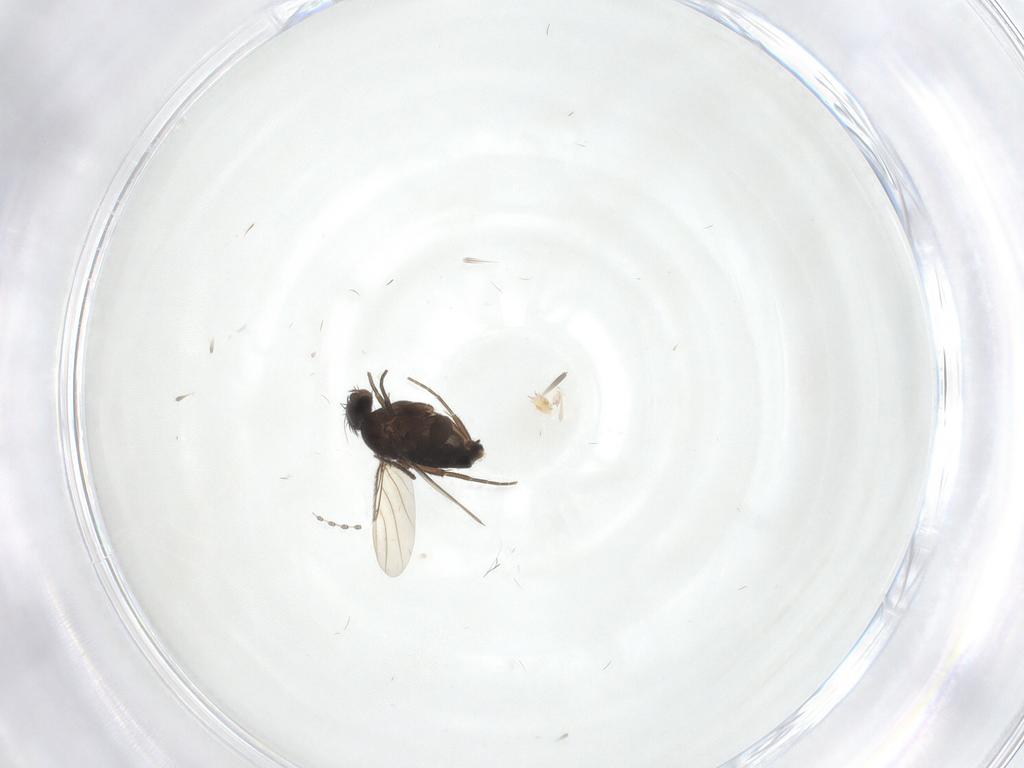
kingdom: Animalia
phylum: Arthropoda
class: Insecta
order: Diptera
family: Phoridae
